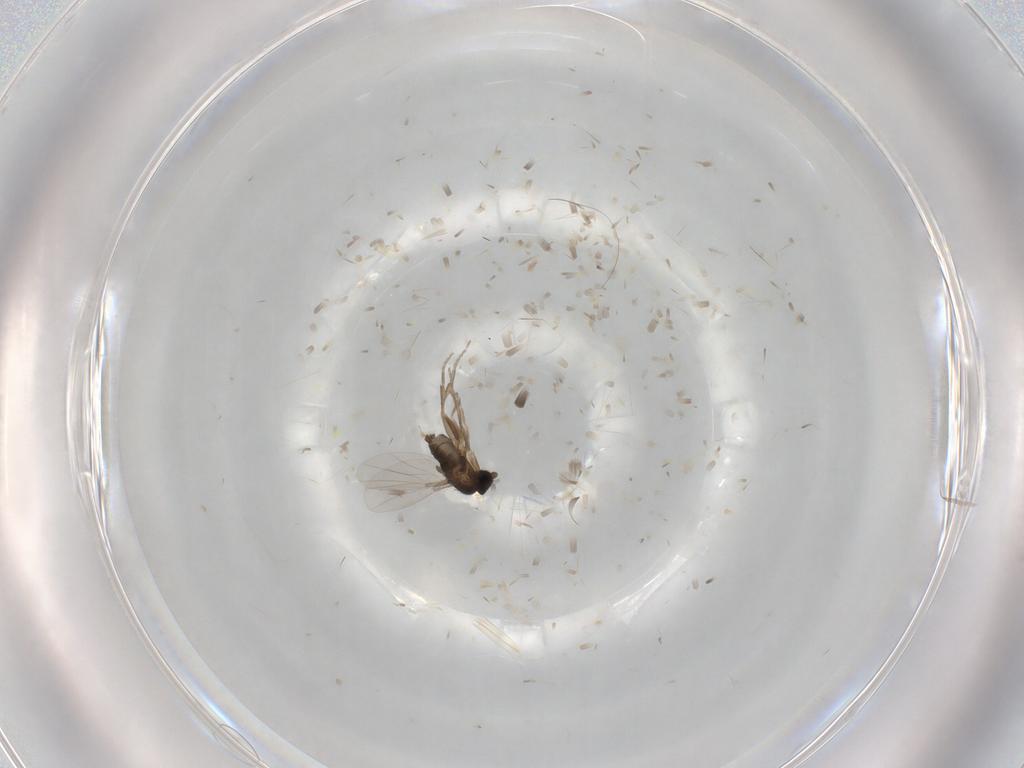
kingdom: Animalia
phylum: Arthropoda
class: Insecta
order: Diptera
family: Phoridae
